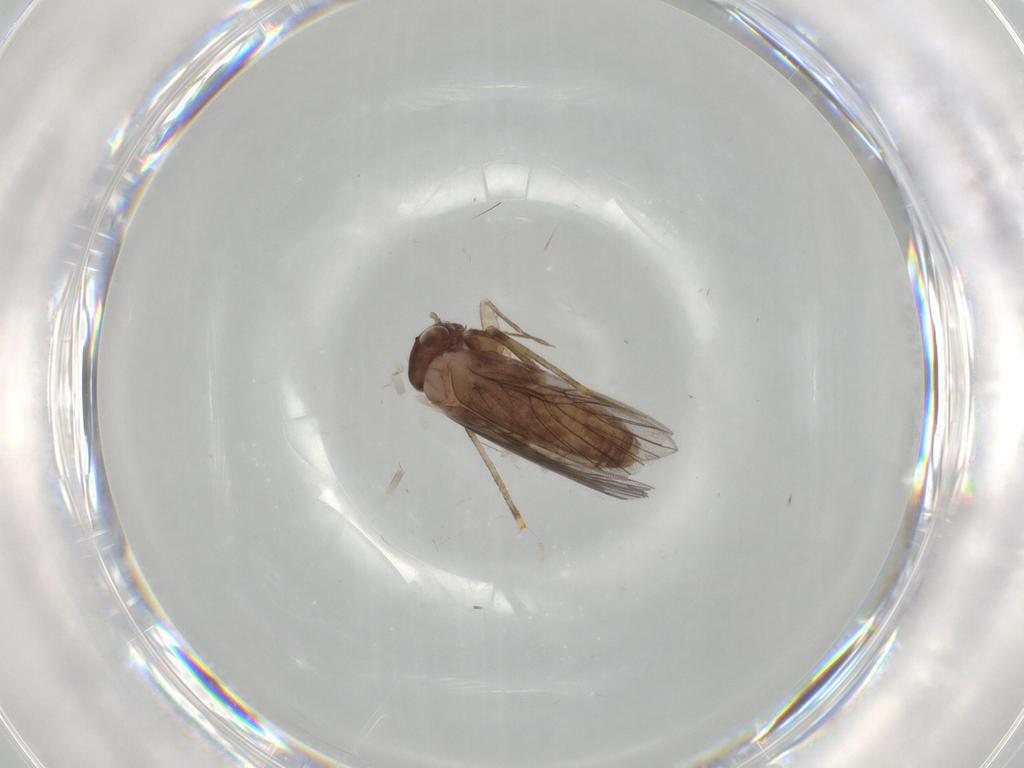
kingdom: Animalia
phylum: Arthropoda
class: Insecta
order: Psocodea
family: Lepidopsocidae
